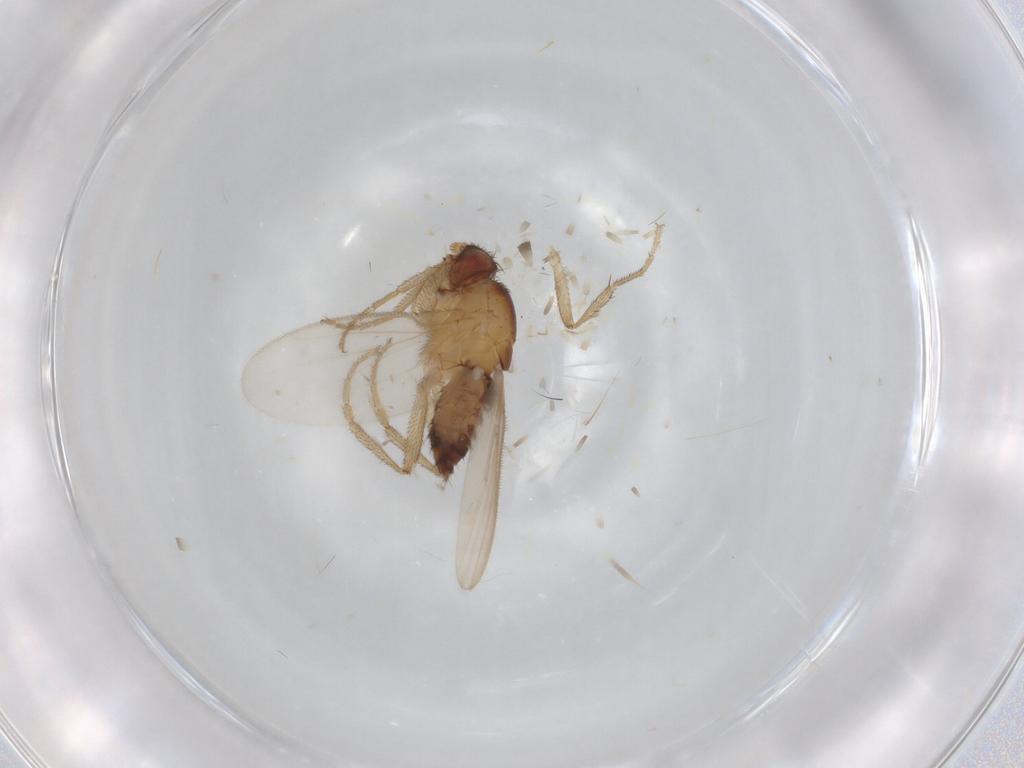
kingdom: Animalia
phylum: Arthropoda
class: Insecta
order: Diptera
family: Sphaeroceridae
